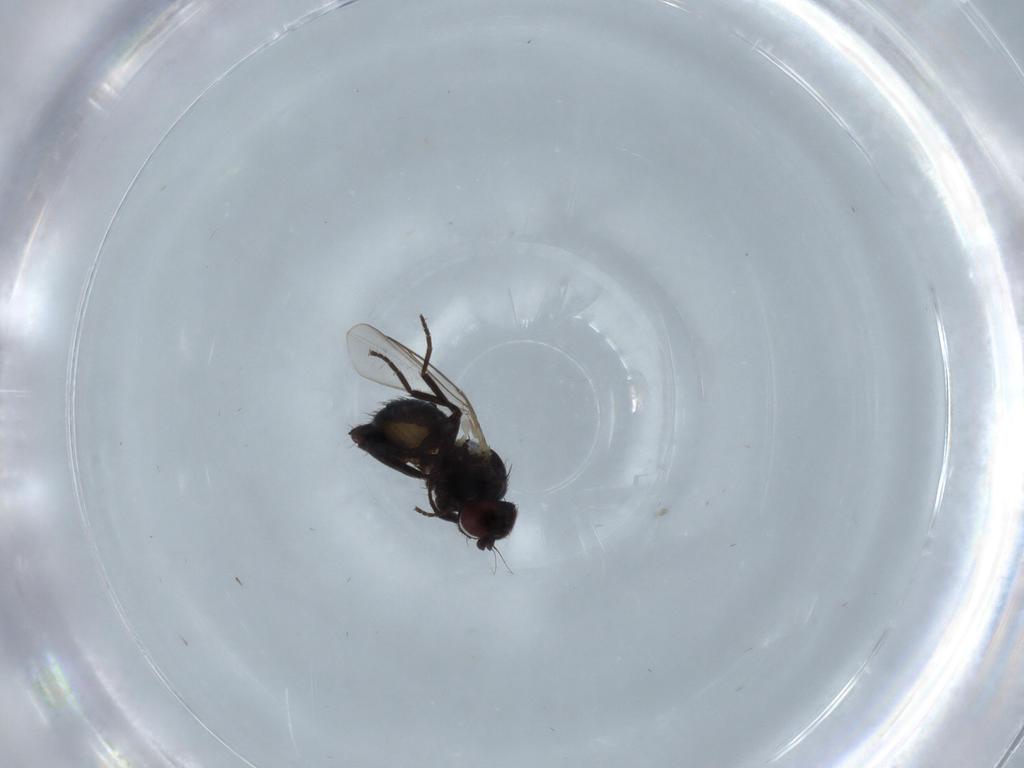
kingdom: Animalia
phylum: Arthropoda
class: Insecta
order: Diptera
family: Culicidae
